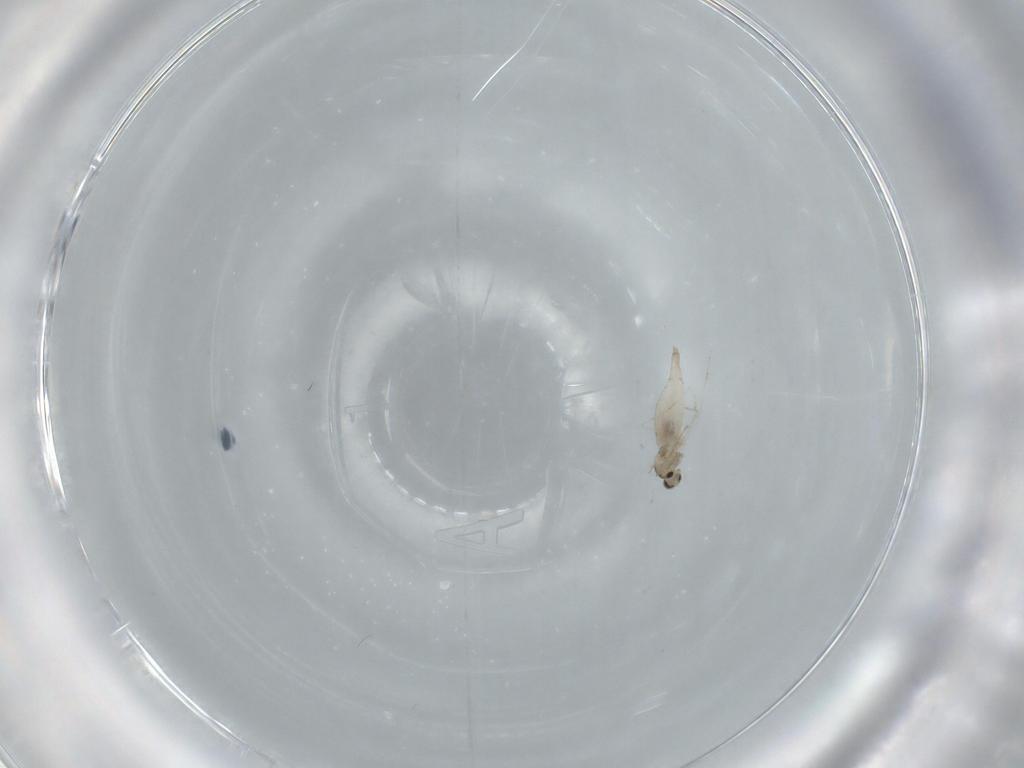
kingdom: Animalia
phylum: Arthropoda
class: Insecta
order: Diptera
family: Cecidomyiidae
